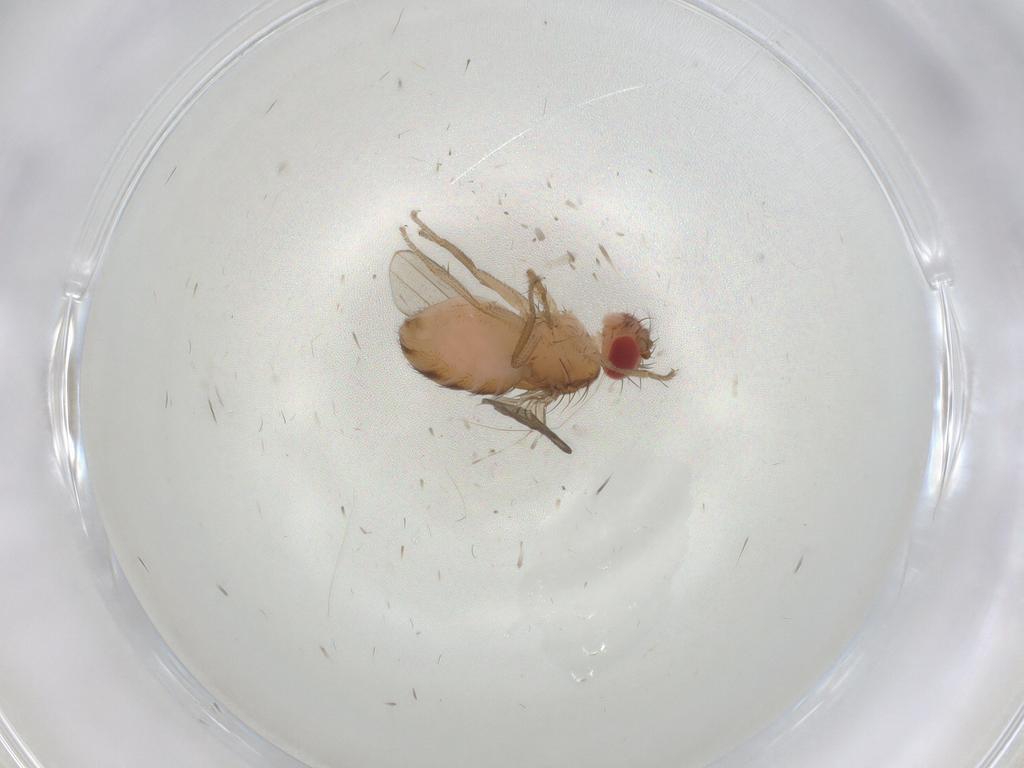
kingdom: Animalia
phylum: Arthropoda
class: Insecta
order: Diptera
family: Drosophilidae
